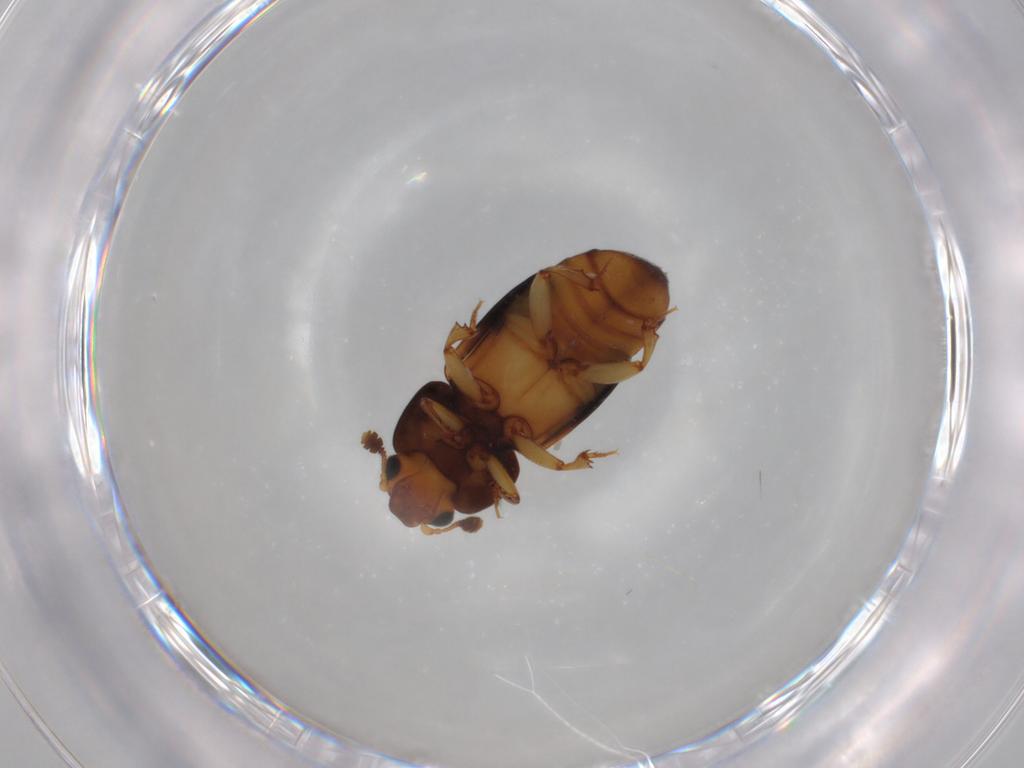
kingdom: Animalia
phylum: Arthropoda
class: Insecta
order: Coleoptera
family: Nitidulidae
